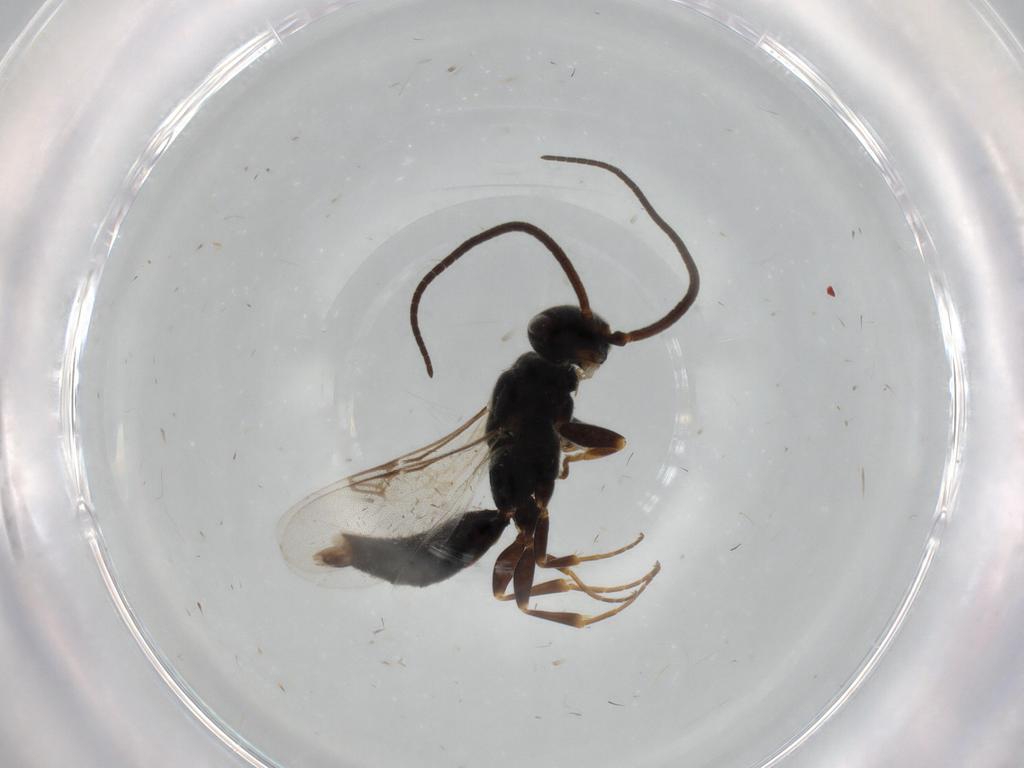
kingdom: Animalia
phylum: Arthropoda
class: Insecta
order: Hymenoptera
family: Sclerogibbidae
